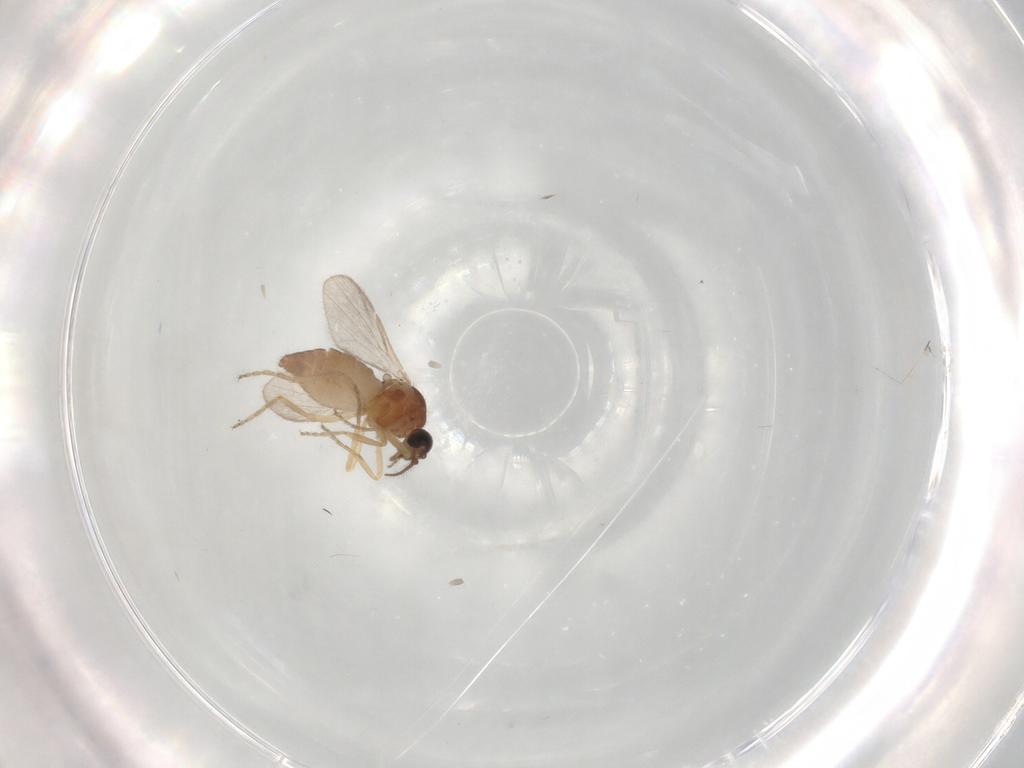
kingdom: Animalia
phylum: Arthropoda
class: Insecta
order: Diptera
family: Ceratopogonidae
